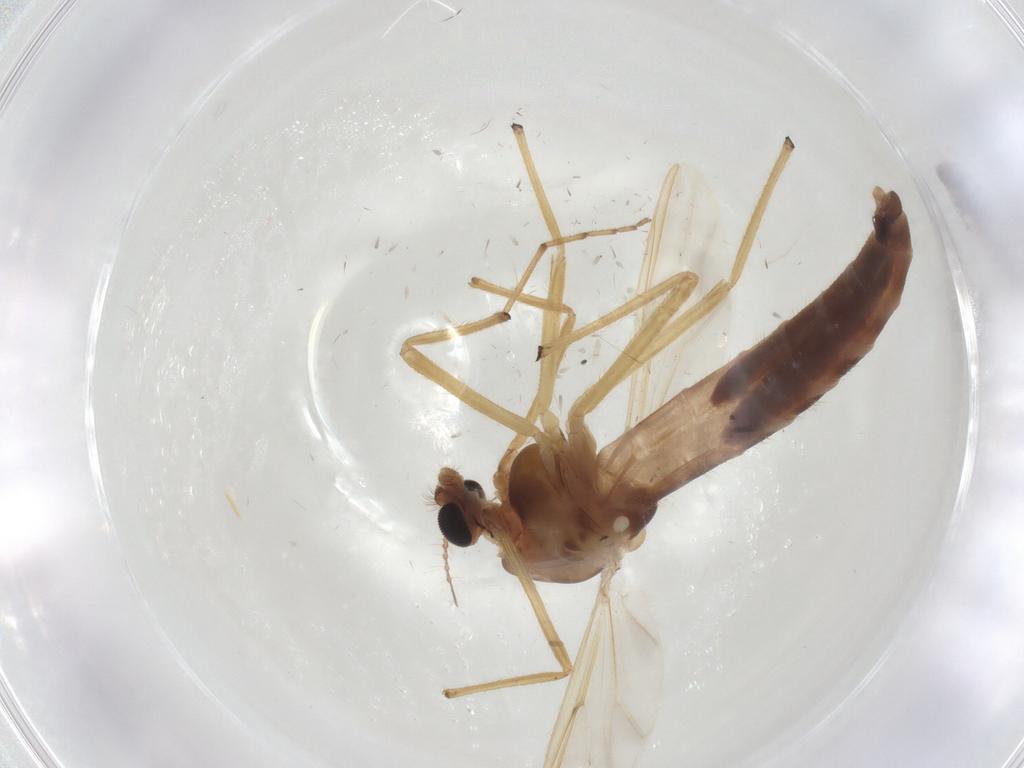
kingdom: Animalia
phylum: Arthropoda
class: Insecta
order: Diptera
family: Chironomidae
